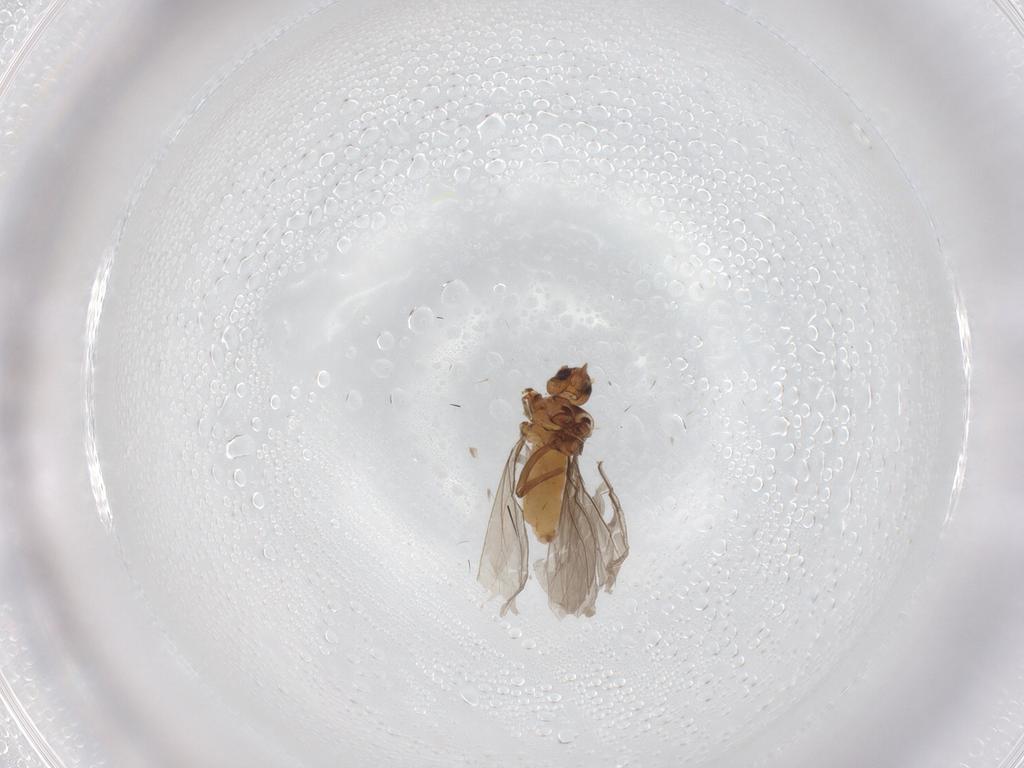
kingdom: Animalia
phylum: Arthropoda
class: Insecta
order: Neuroptera
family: Coniopterygidae
